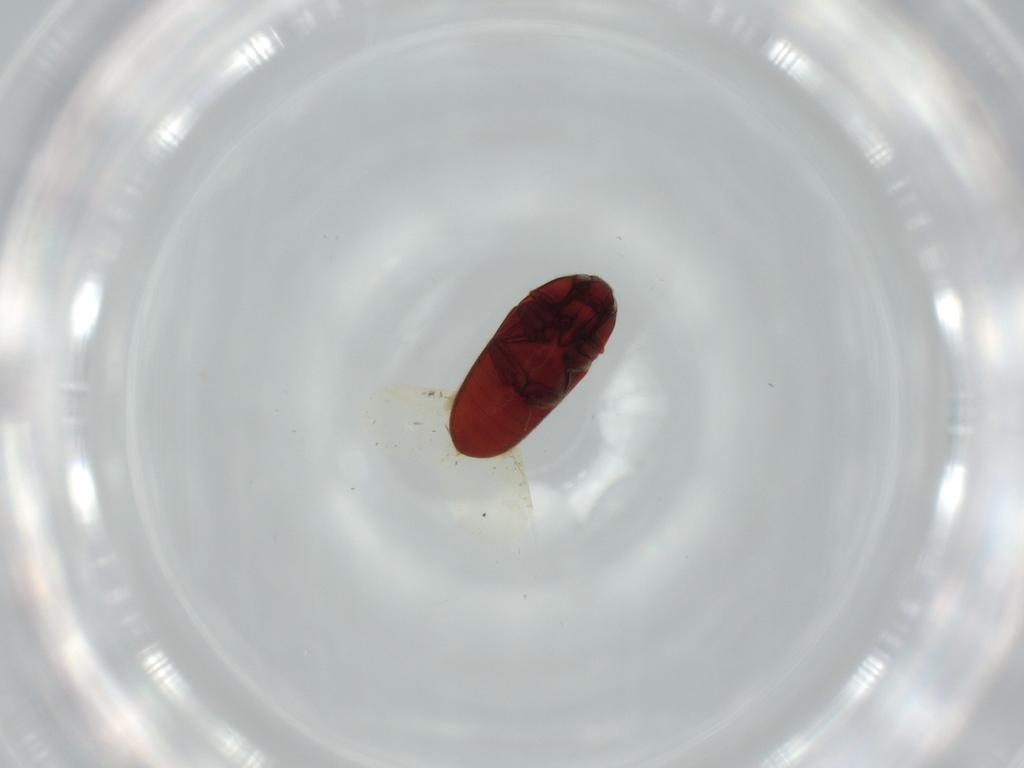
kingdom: Animalia
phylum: Arthropoda
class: Insecta
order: Coleoptera
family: Throscidae
